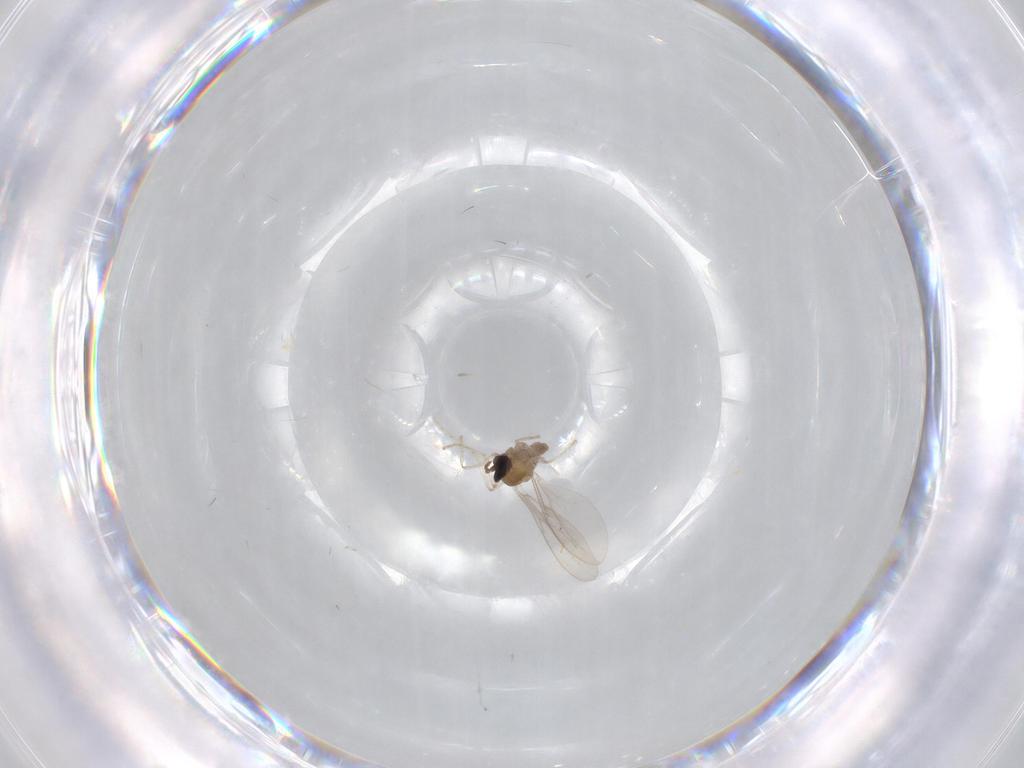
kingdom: Animalia
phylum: Arthropoda
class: Insecta
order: Diptera
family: Cecidomyiidae
